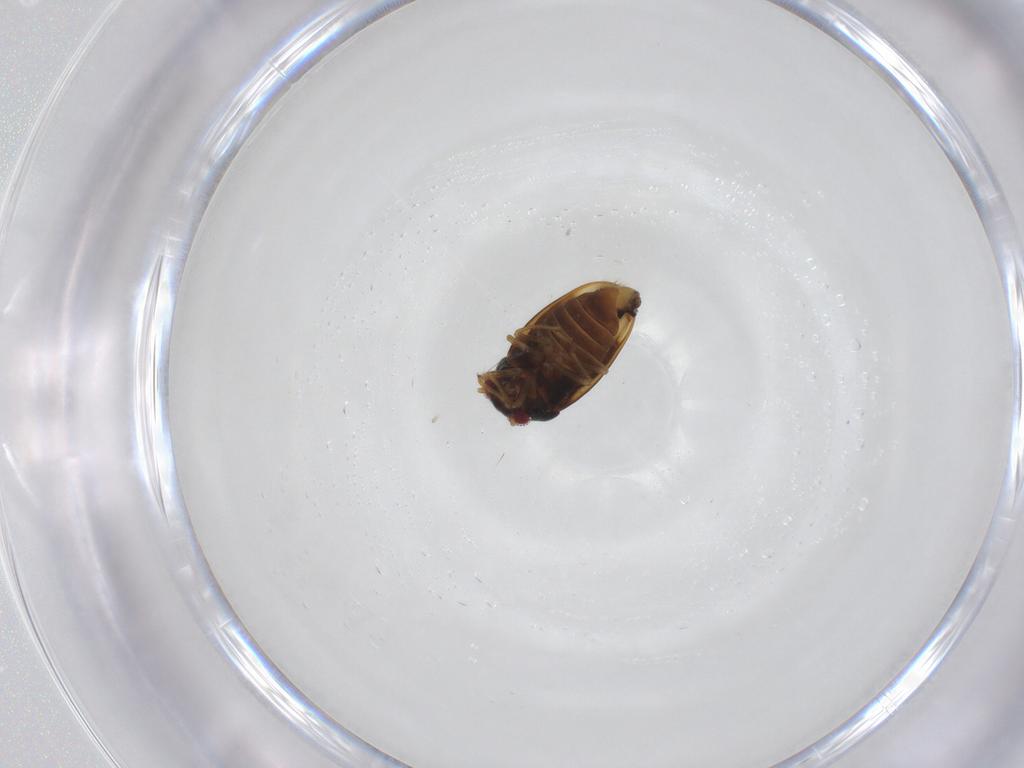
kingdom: Animalia
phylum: Arthropoda
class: Insecta
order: Hemiptera
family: Schizopteridae
